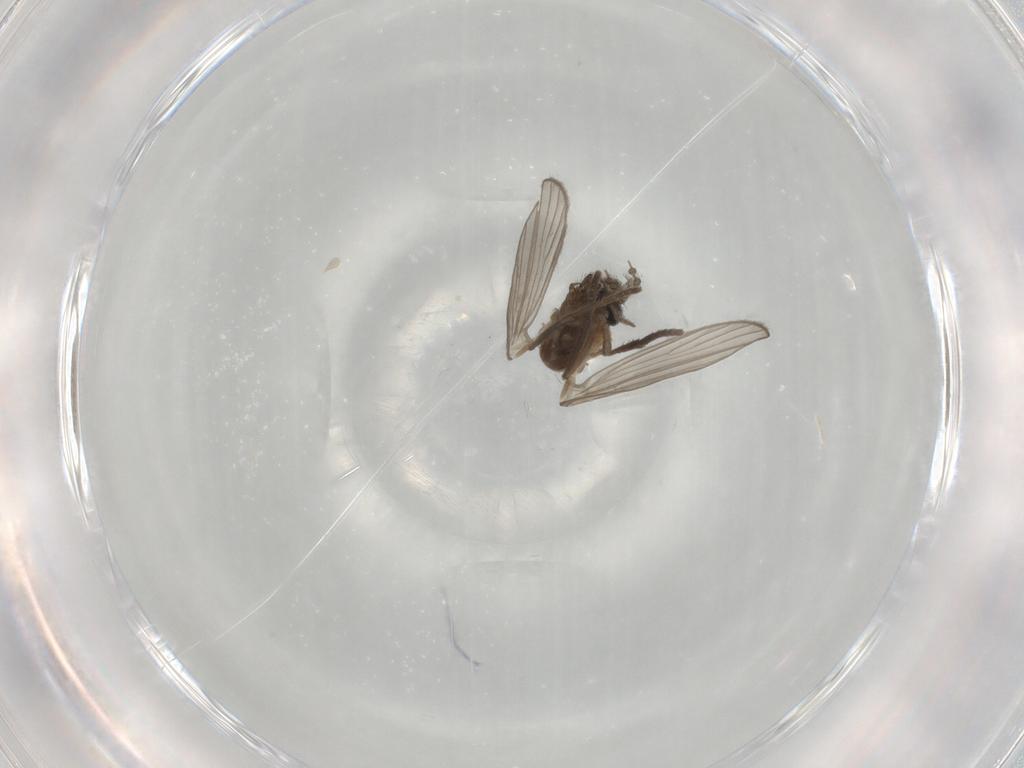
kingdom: Animalia
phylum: Arthropoda
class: Insecta
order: Diptera
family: Psychodidae
